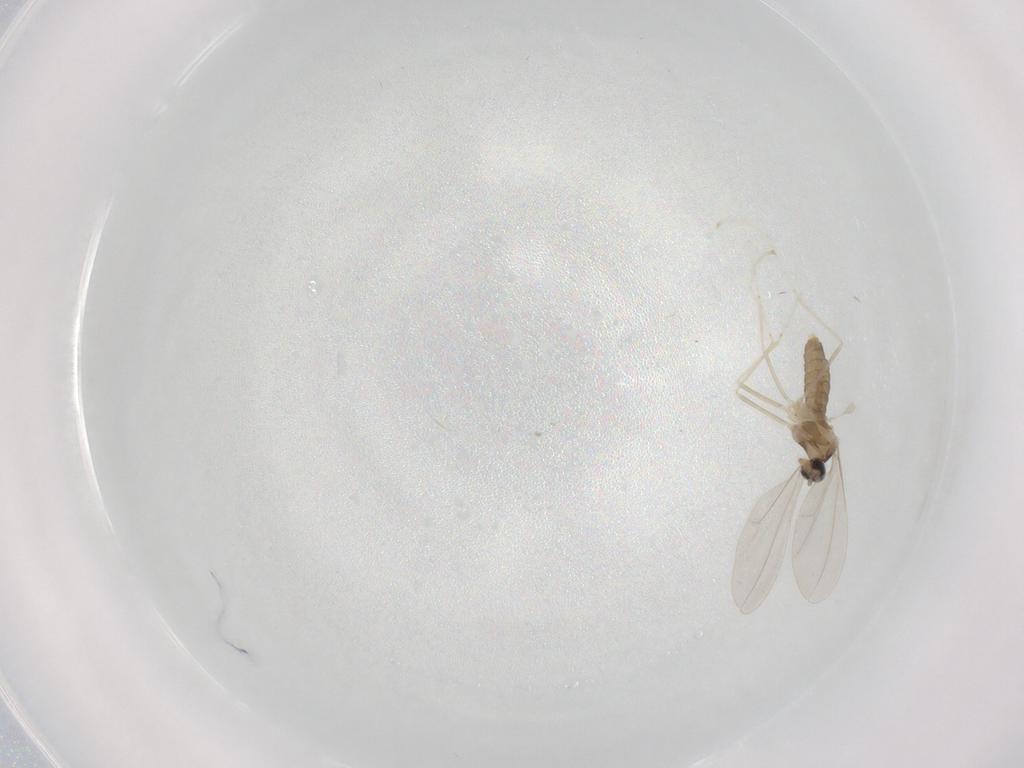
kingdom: Animalia
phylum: Arthropoda
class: Insecta
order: Diptera
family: Cecidomyiidae
